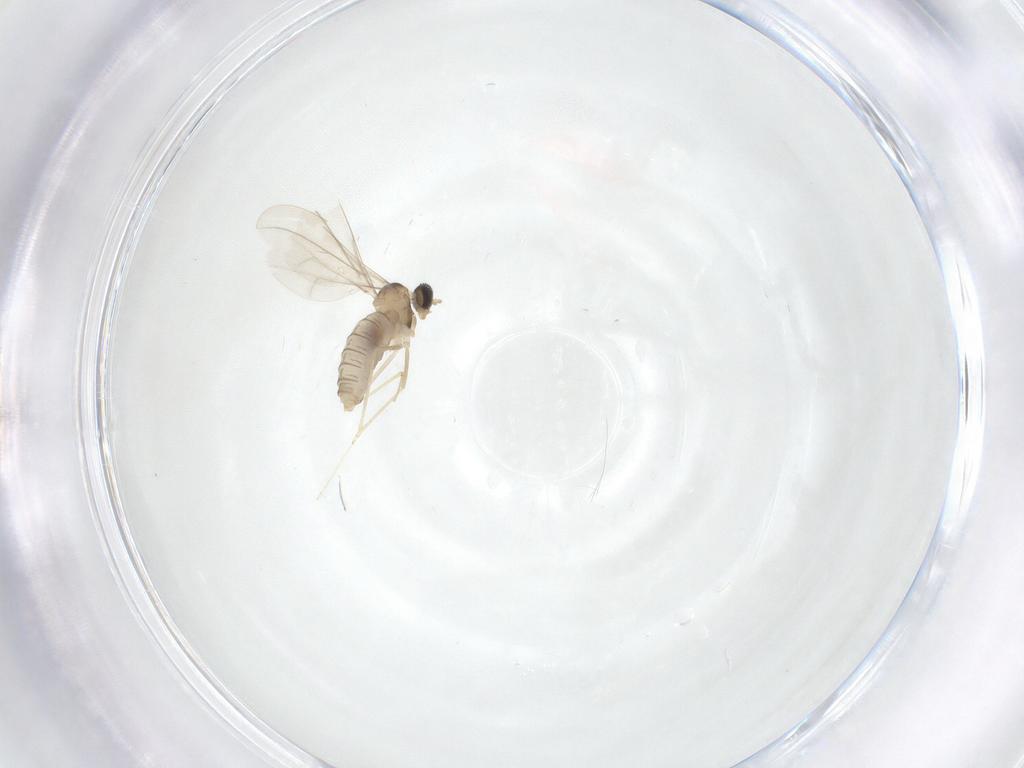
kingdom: Animalia
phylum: Arthropoda
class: Insecta
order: Diptera
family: Cecidomyiidae
